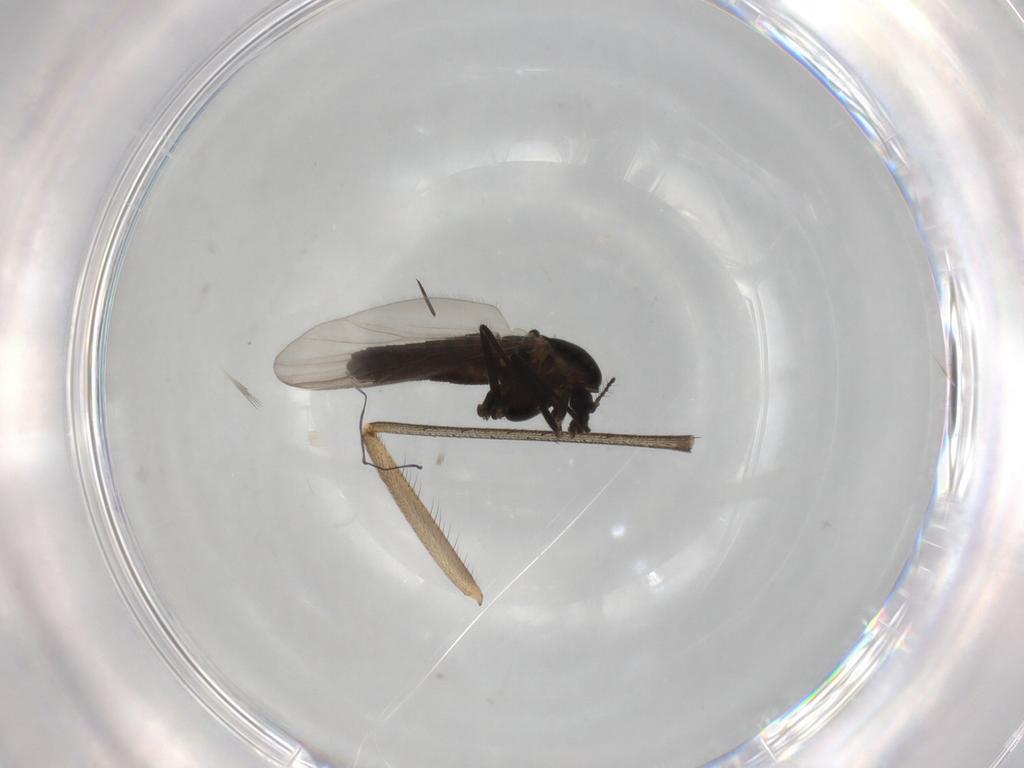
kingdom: Animalia
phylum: Arthropoda
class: Insecta
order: Diptera
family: Chironomidae
